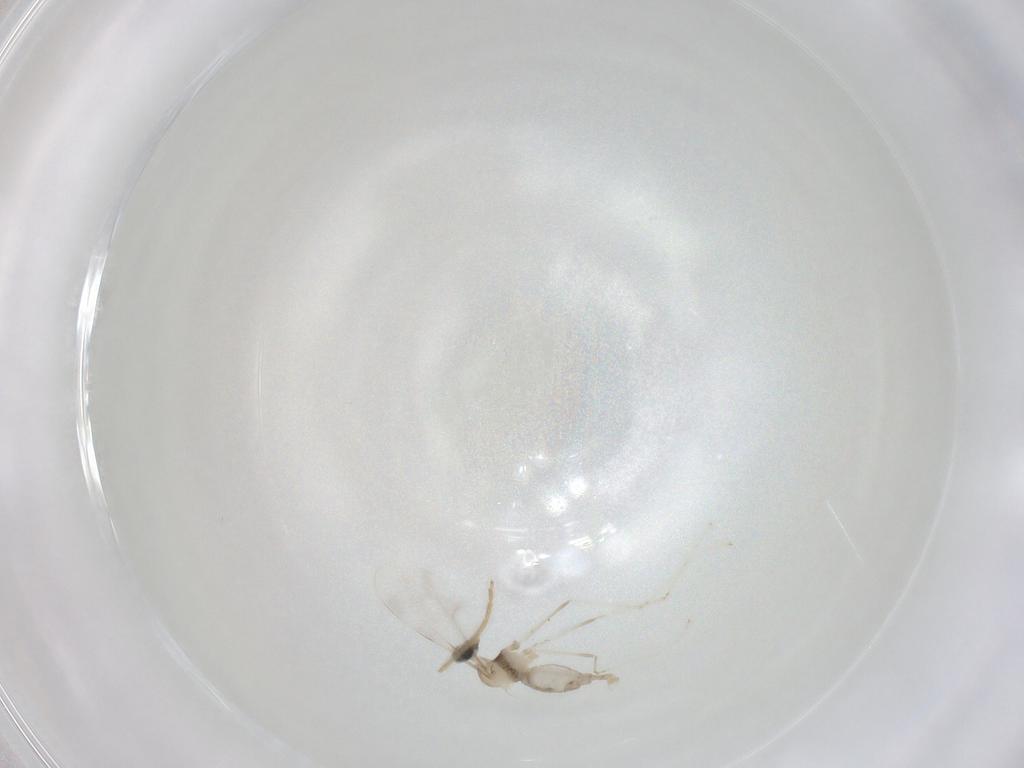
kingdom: Animalia
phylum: Arthropoda
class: Insecta
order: Diptera
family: Cecidomyiidae
